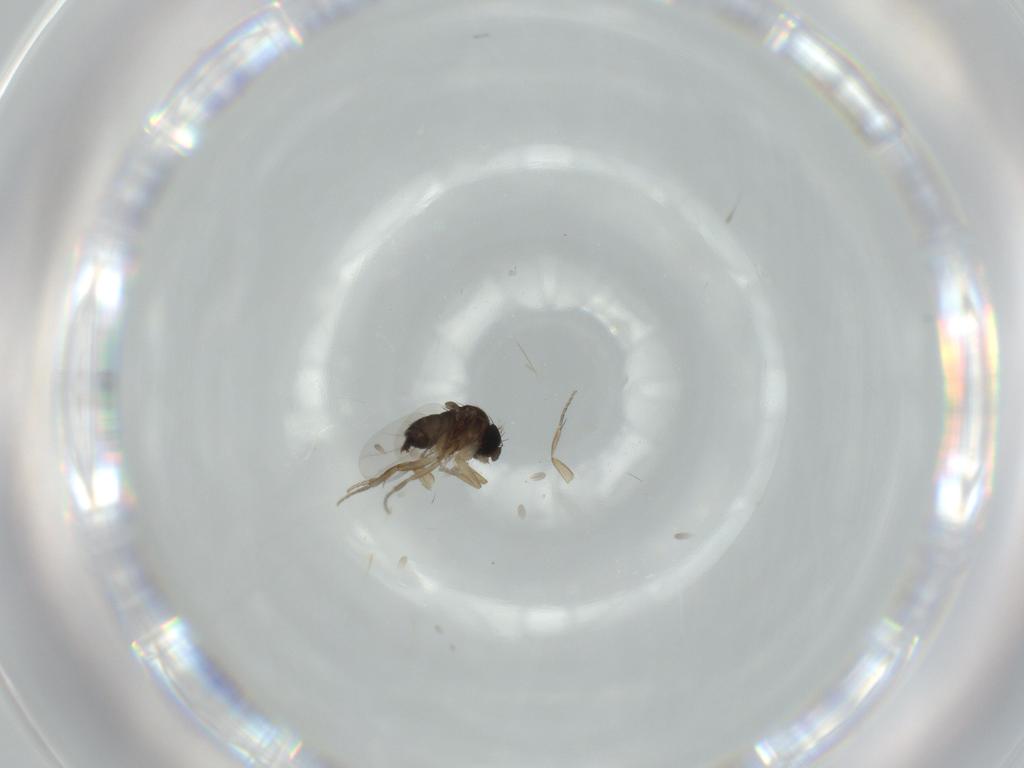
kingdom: Animalia
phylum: Arthropoda
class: Insecta
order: Diptera
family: Phoridae
